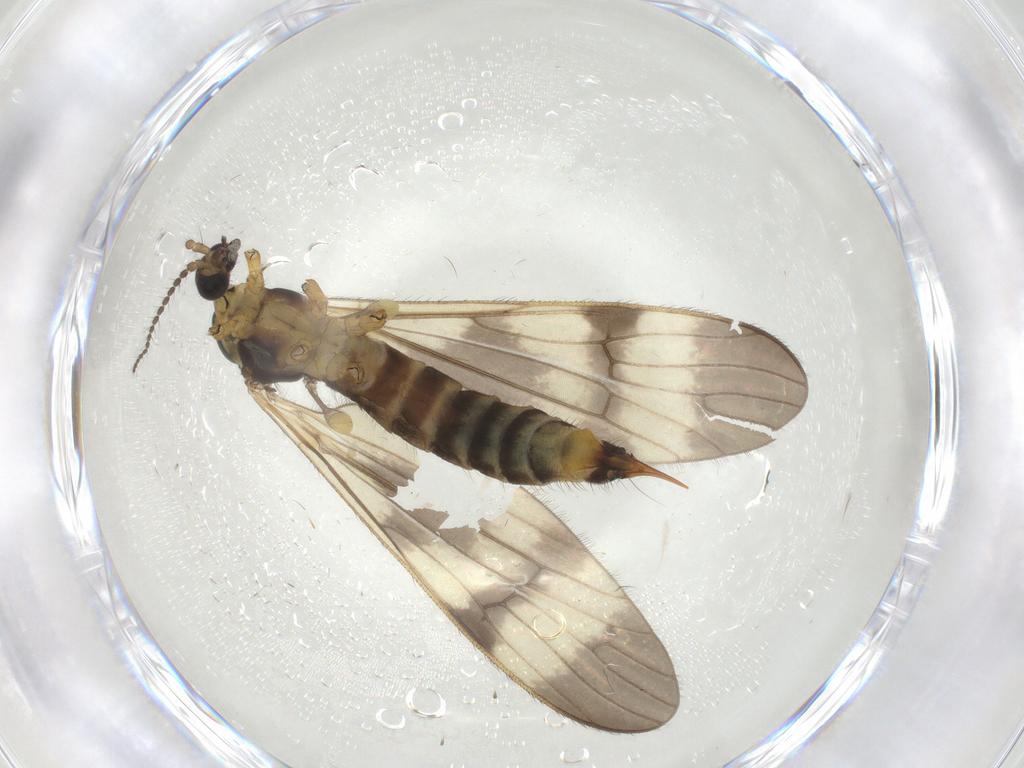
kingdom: Animalia
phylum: Arthropoda
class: Insecta
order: Diptera
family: Limoniidae
